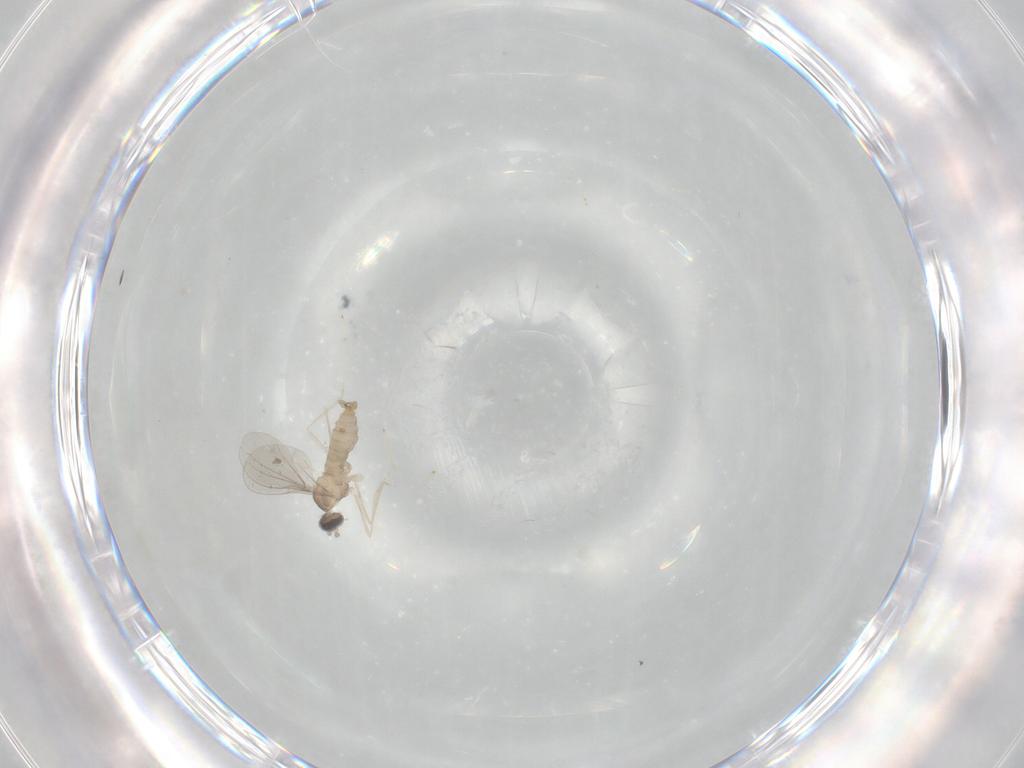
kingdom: Animalia
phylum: Arthropoda
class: Insecta
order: Diptera
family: Cecidomyiidae
